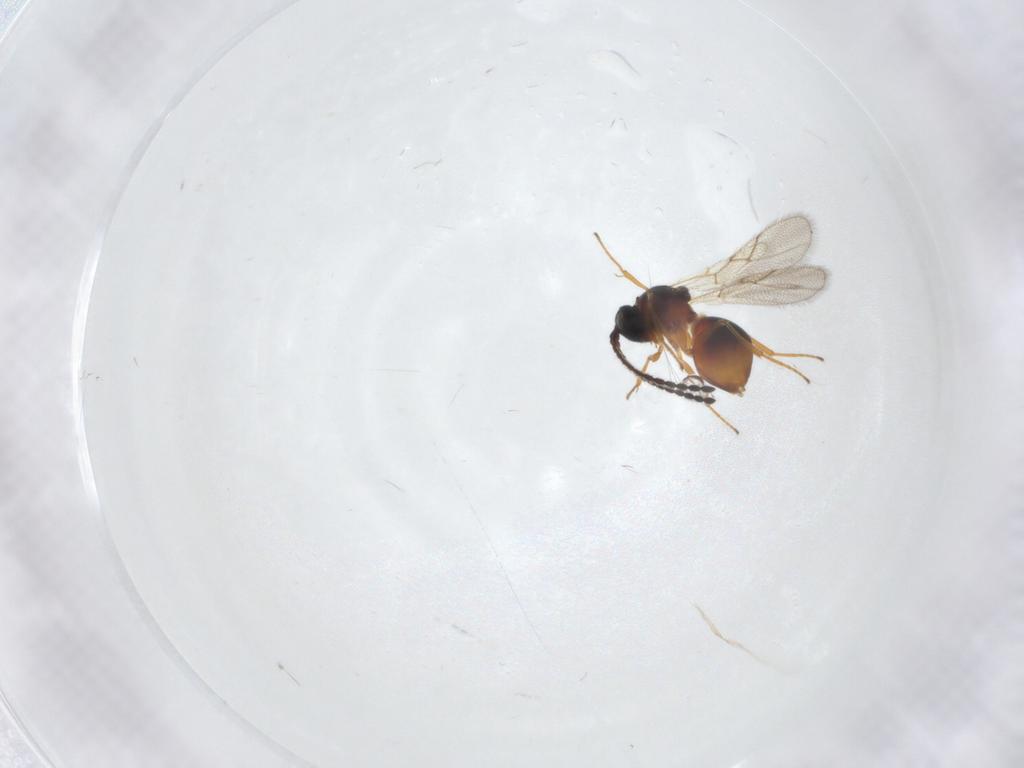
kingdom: Animalia
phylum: Arthropoda
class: Insecta
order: Hymenoptera
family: Figitidae
